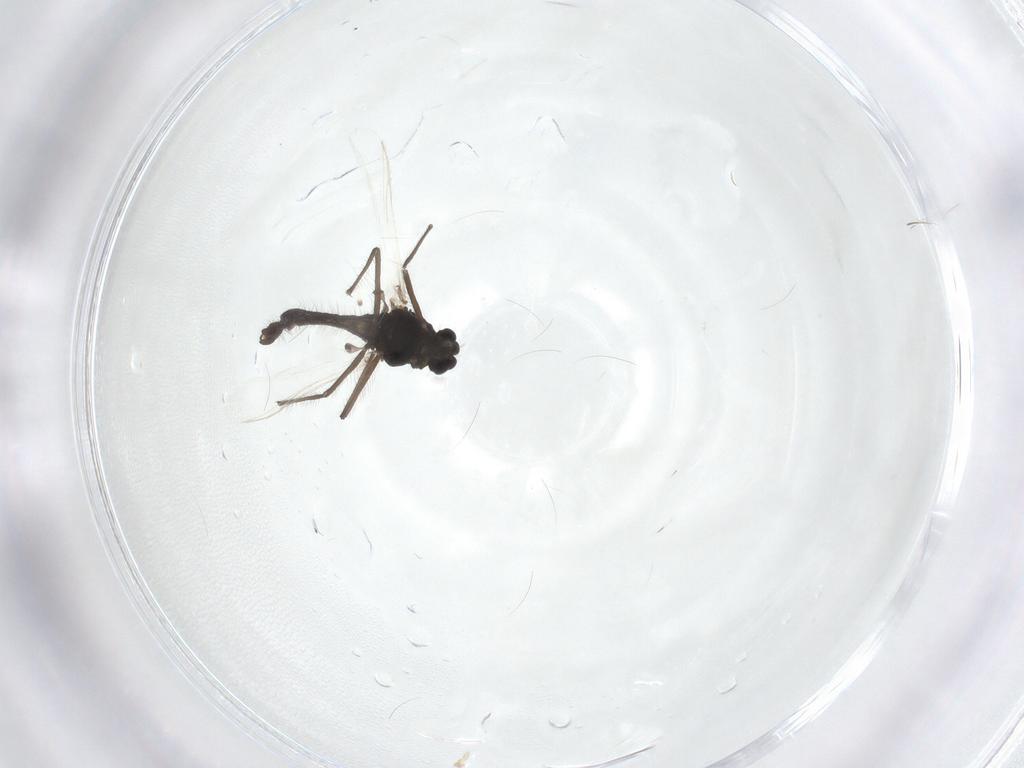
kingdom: Animalia
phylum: Arthropoda
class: Insecta
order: Diptera
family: Chironomidae
